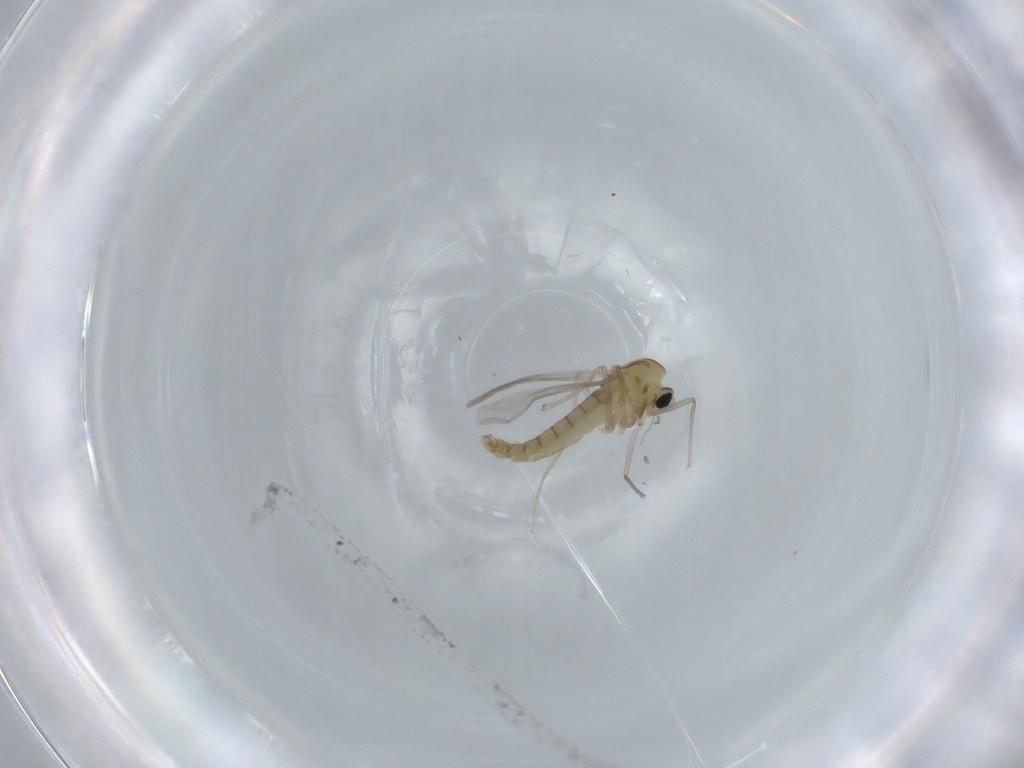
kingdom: Animalia
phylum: Arthropoda
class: Insecta
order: Diptera
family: Chironomidae
